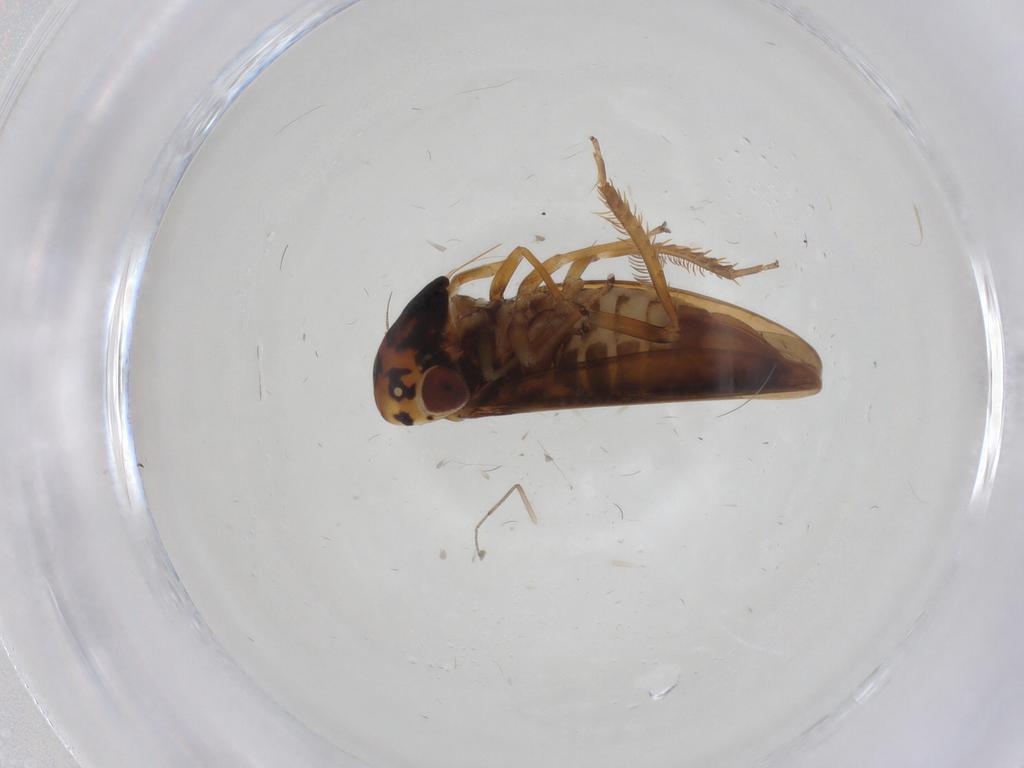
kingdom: Animalia
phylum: Arthropoda
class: Insecta
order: Hemiptera
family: Cicadellidae
